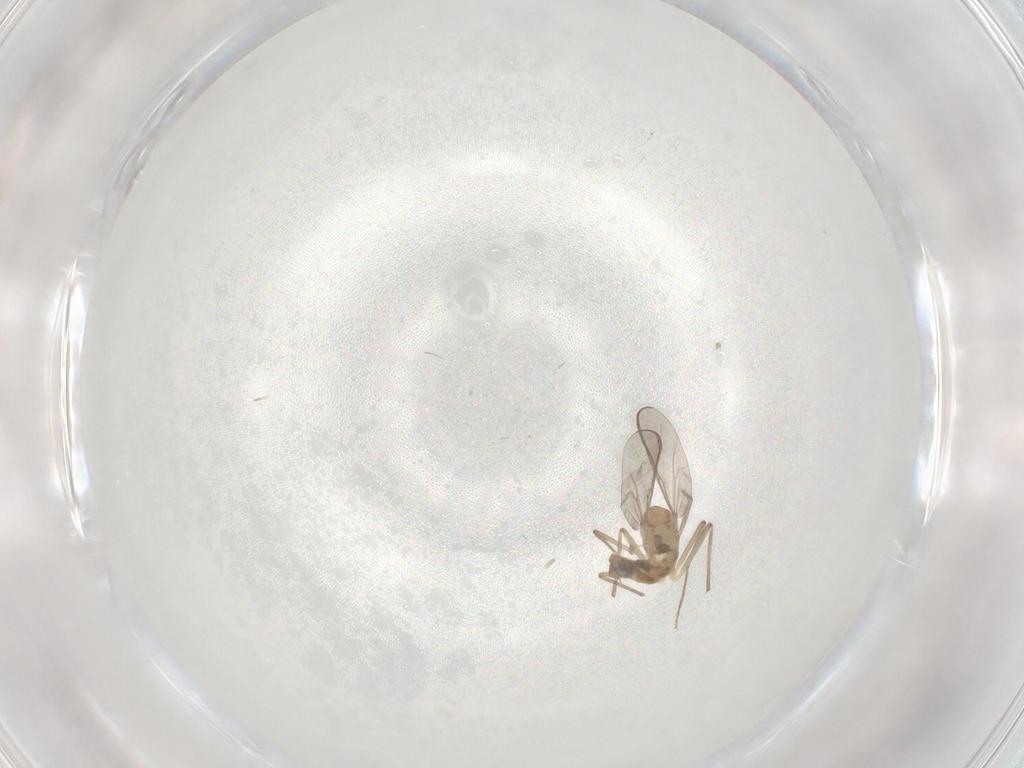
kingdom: Animalia
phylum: Arthropoda
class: Insecta
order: Diptera
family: Chironomidae
